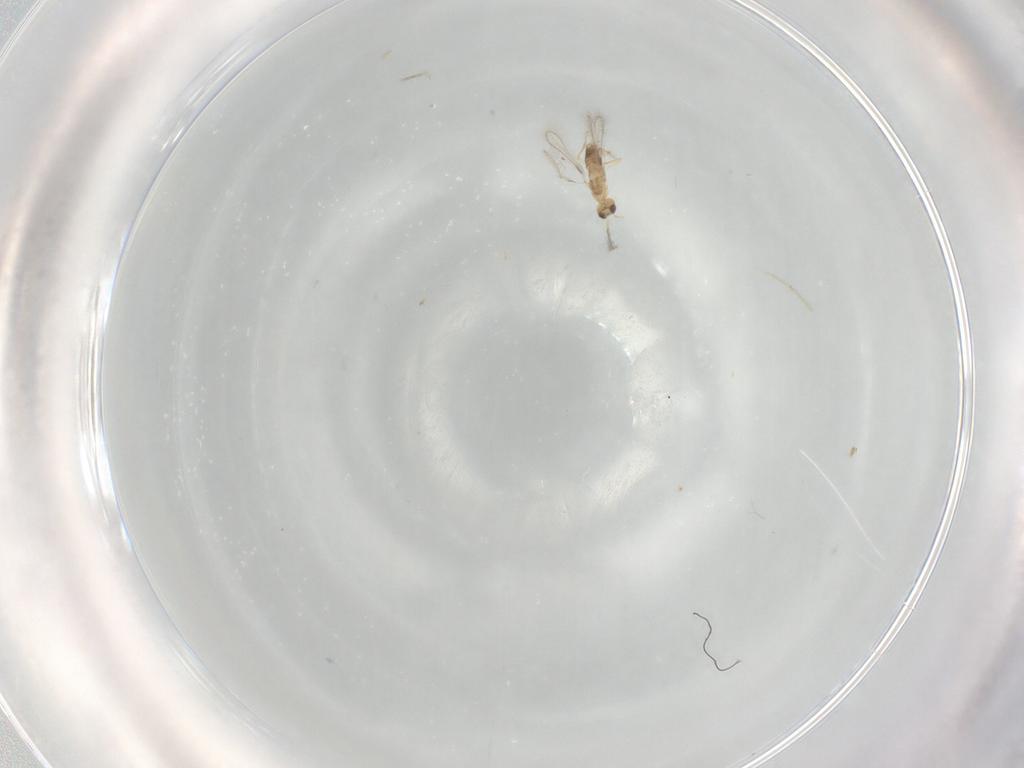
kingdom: Animalia
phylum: Arthropoda
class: Insecta
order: Hymenoptera
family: Mymaridae
